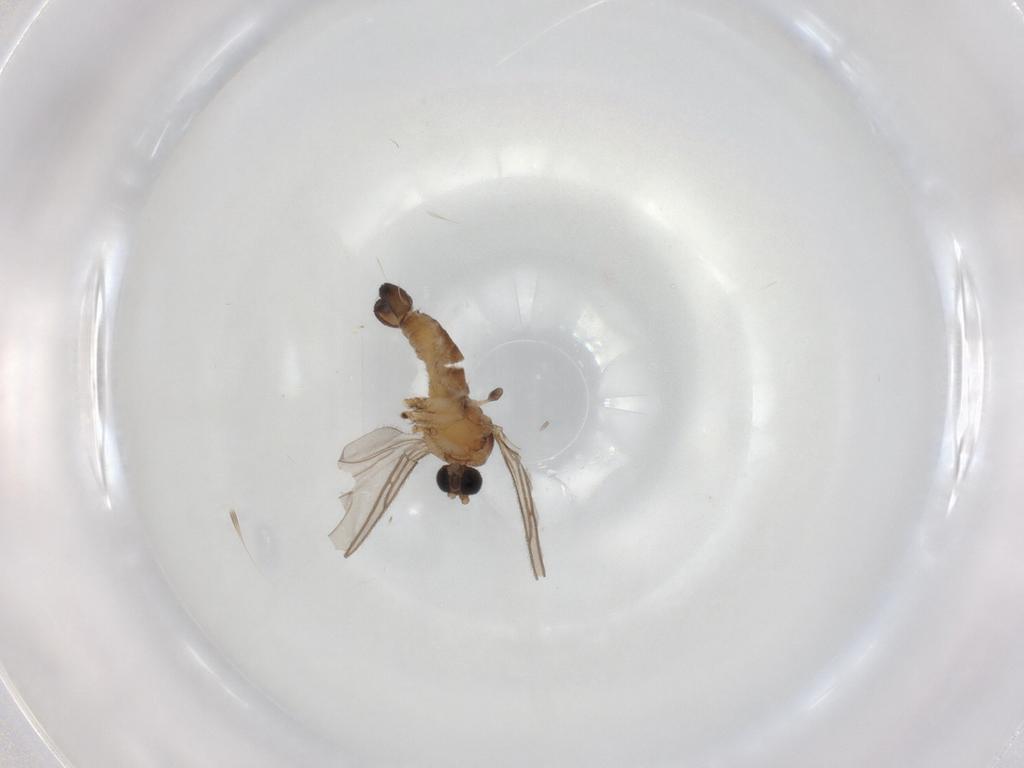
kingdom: Animalia
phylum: Arthropoda
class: Insecta
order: Diptera
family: Sciaridae
